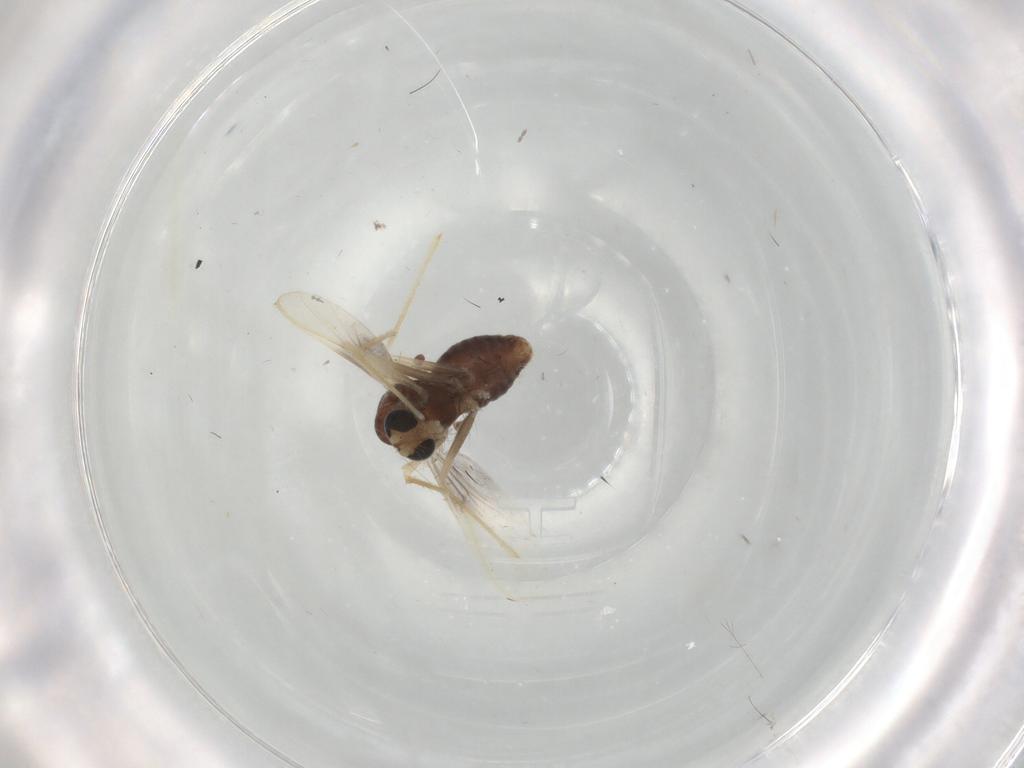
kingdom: Animalia
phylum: Arthropoda
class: Insecta
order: Diptera
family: Chironomidae
